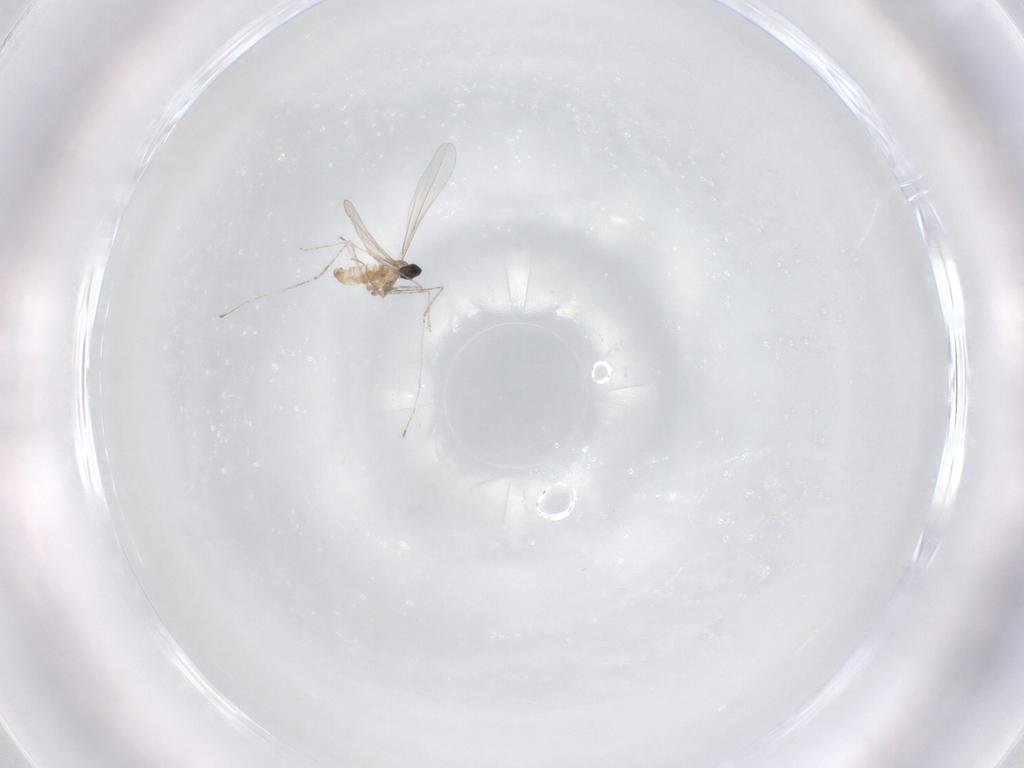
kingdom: Animalia
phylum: Arthropoda
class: Insecta
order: Diptera
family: Cecidomyiidae
